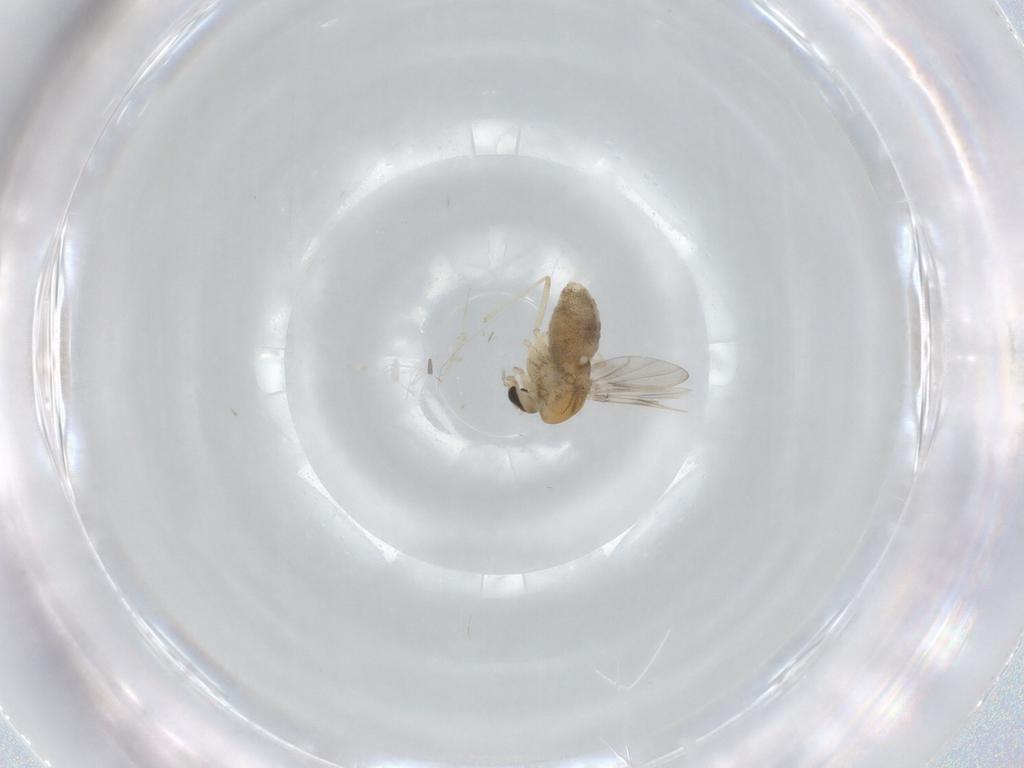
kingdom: Animalia
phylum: Arthropoda
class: Insecta
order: Diptera
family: Chironomidae
